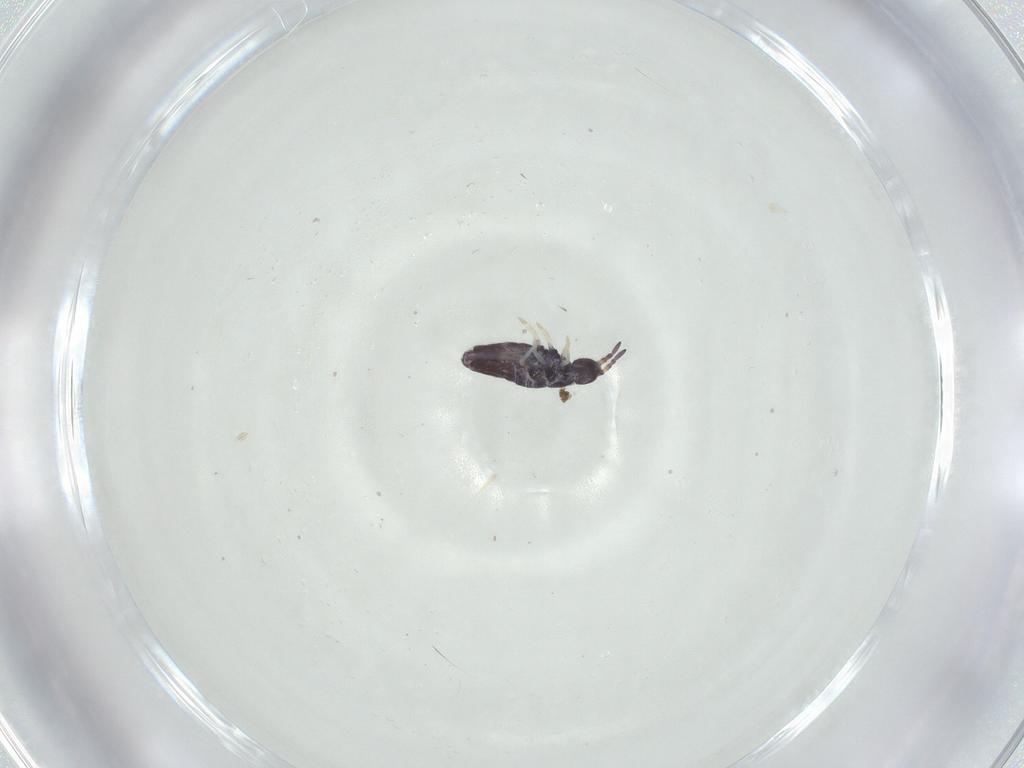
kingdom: Animalia
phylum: Arthropoda
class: Collembola
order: Entomobryomorpha
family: Entomobryidae
